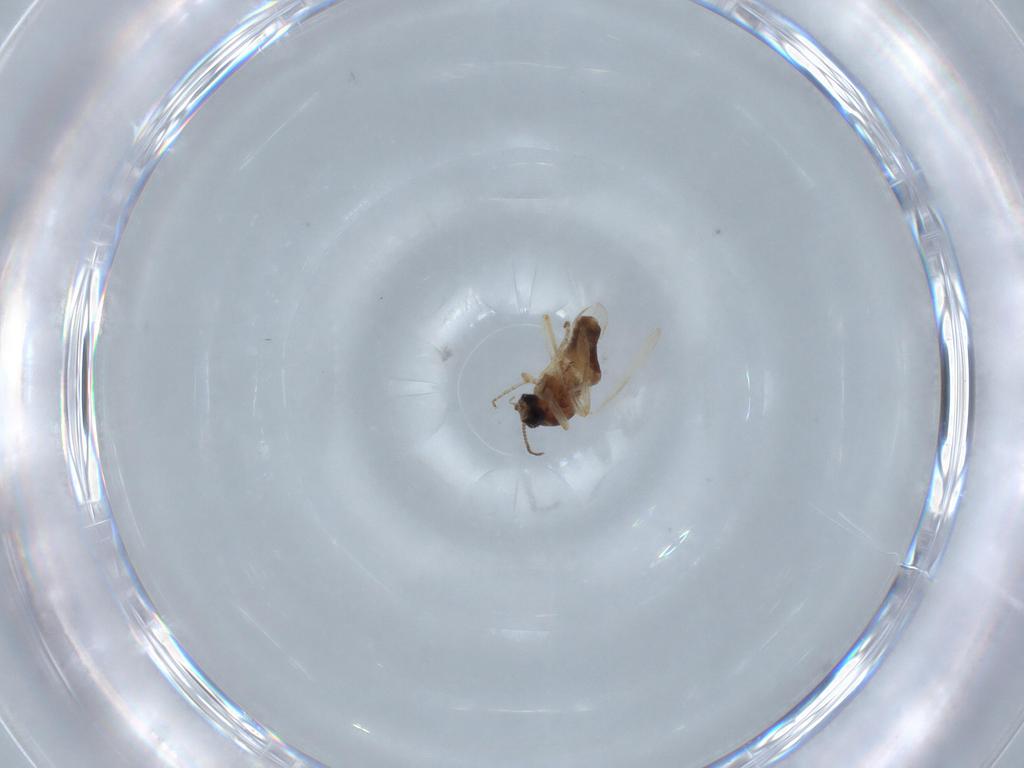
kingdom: Animalia
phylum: Arthropoda
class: Insecta
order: Diptera
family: Ceratopogonidae
